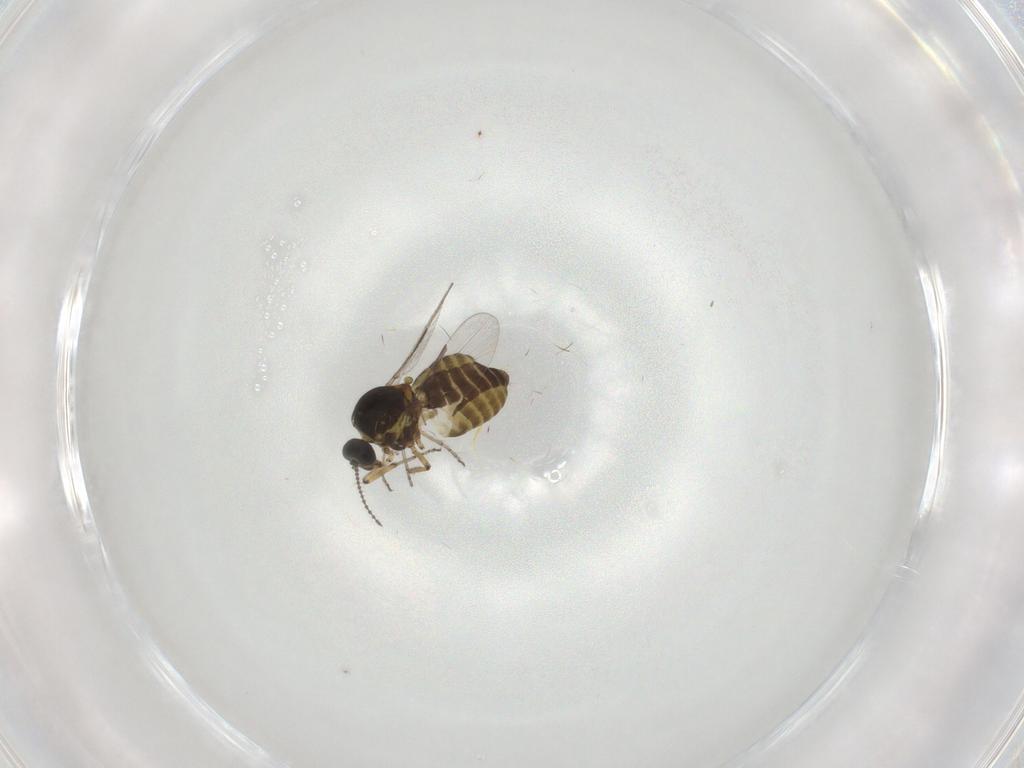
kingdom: Animalia
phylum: Arthropoda
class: Insecta
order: Diptera
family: Ceratopogonidae
